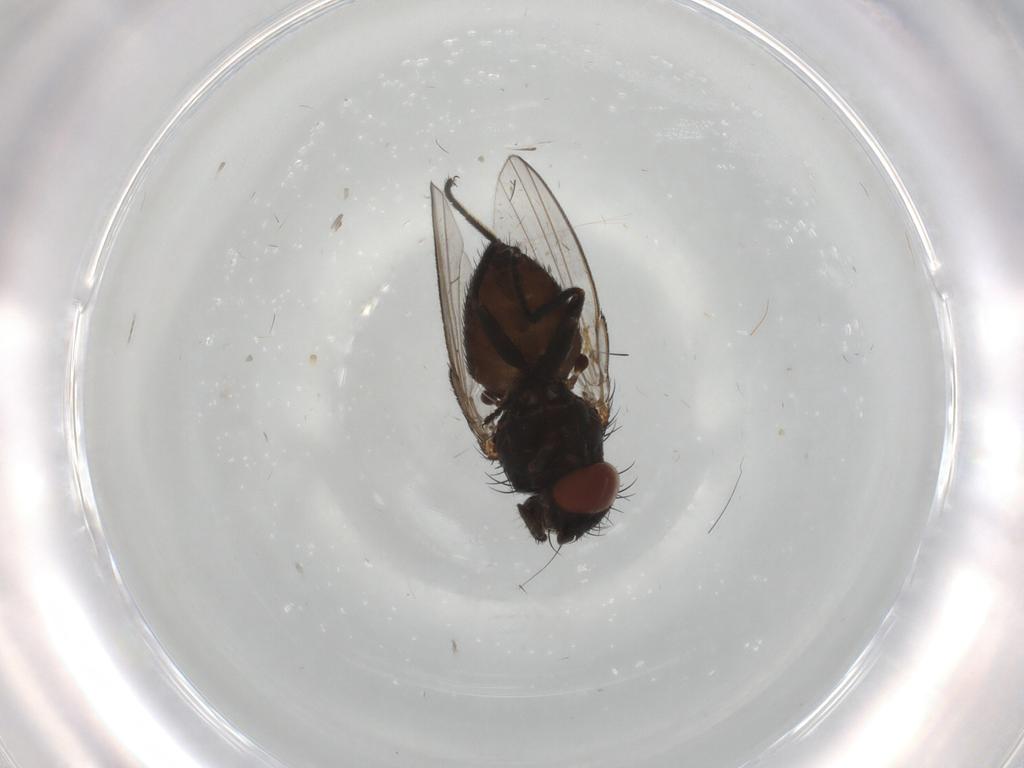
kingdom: Animalia
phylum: Arthropoda
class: Insecta
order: Diptera
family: Milichiidae
